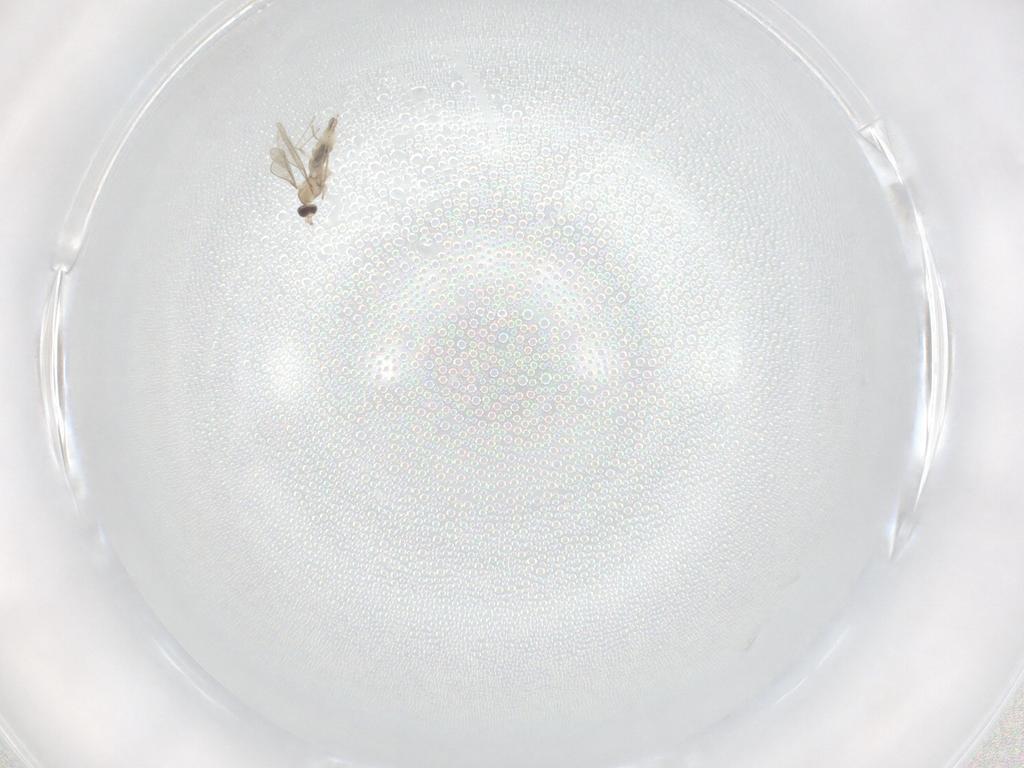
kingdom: Animalia
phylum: Arthropoda
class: Insecta
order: Diptera
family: Cecidomyiidae
